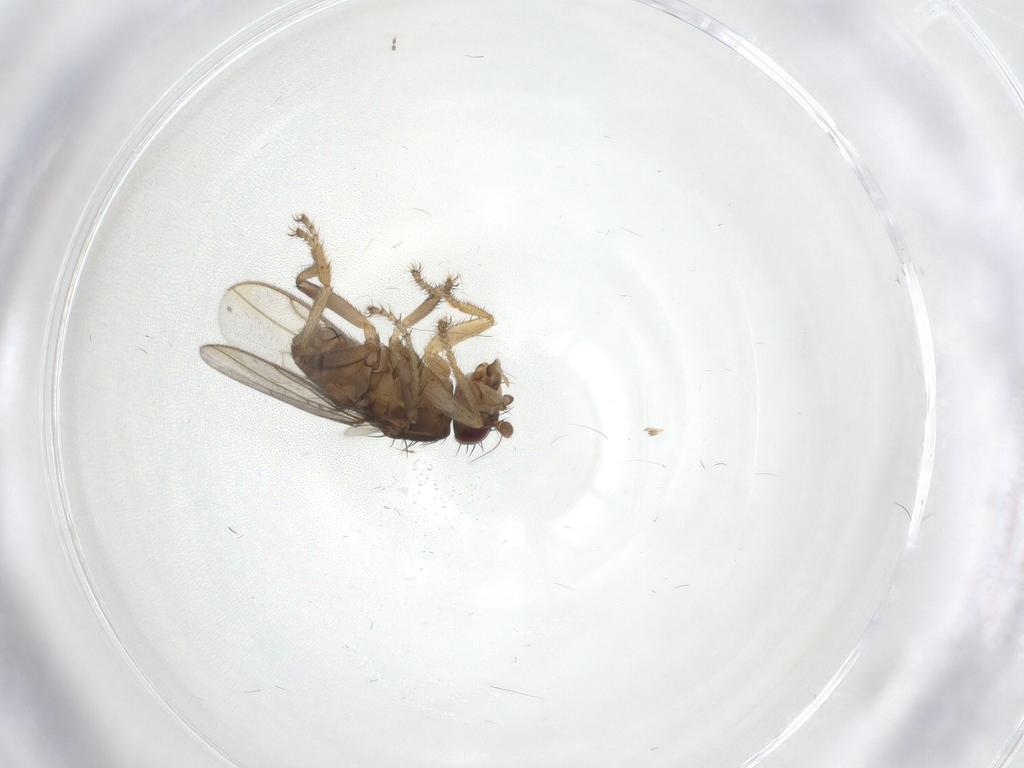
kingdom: Animalia
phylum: Arthropoda
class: Insecta
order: Diptera
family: Sphaeroceridae
